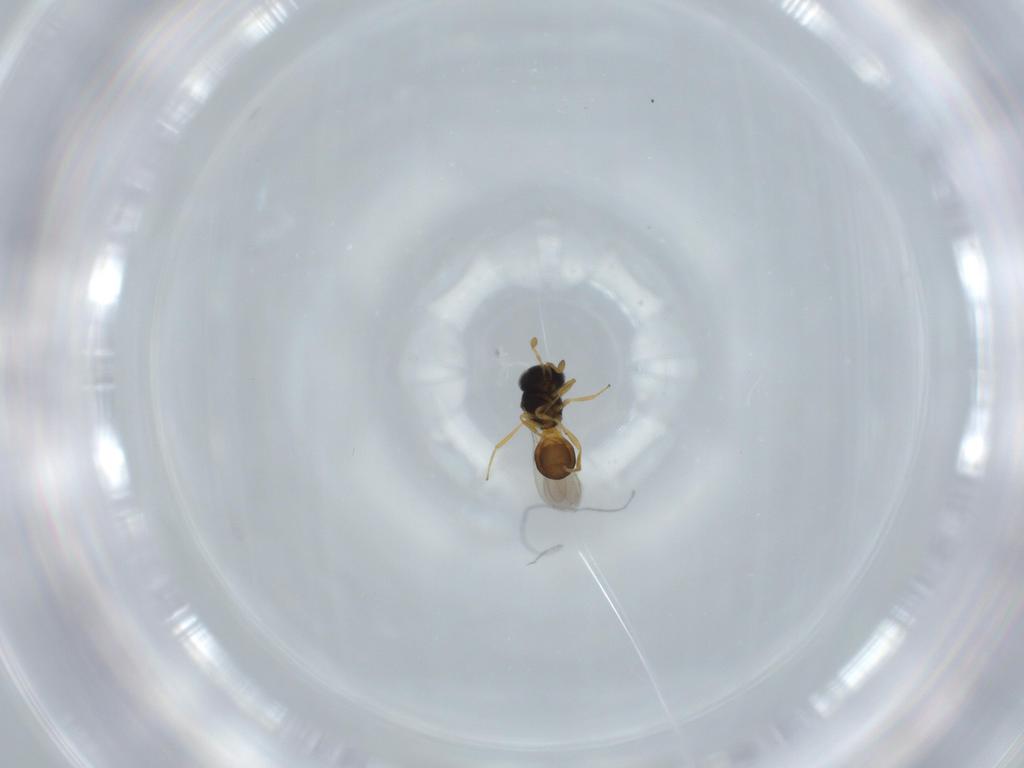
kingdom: Animalia
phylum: Arthropoda
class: Insecta
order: Hymenoptera
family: Scelionidae
